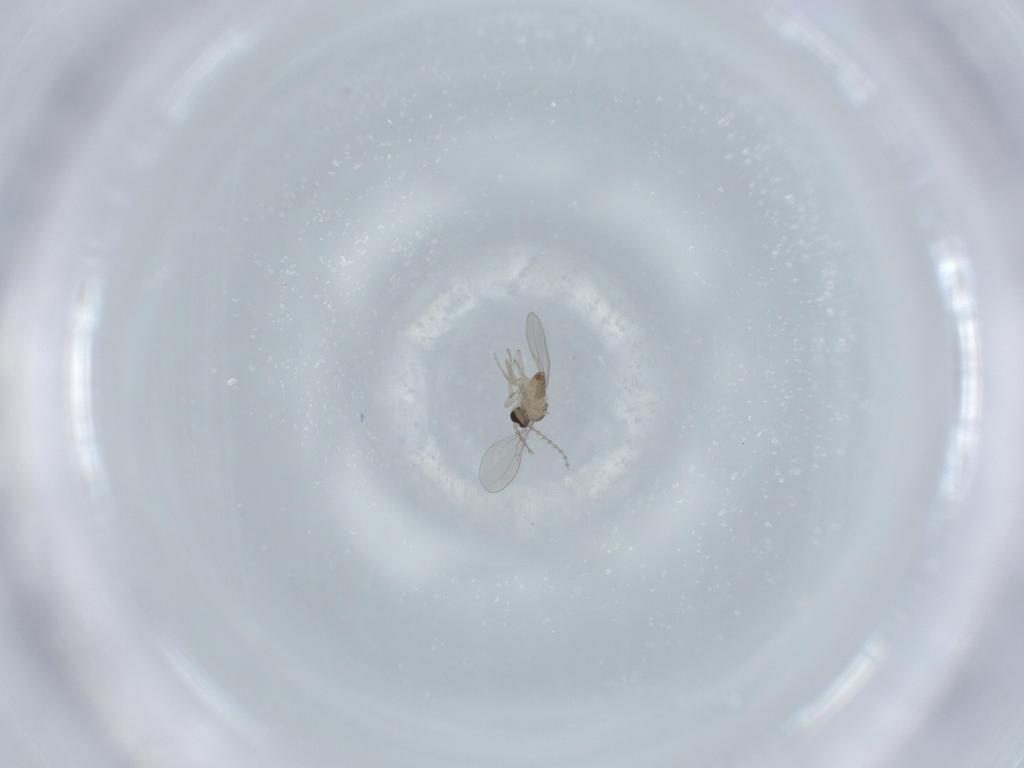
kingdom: Animalia
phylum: Arthropoda
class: Insecta
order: Diptera
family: Cecidomyiidae
